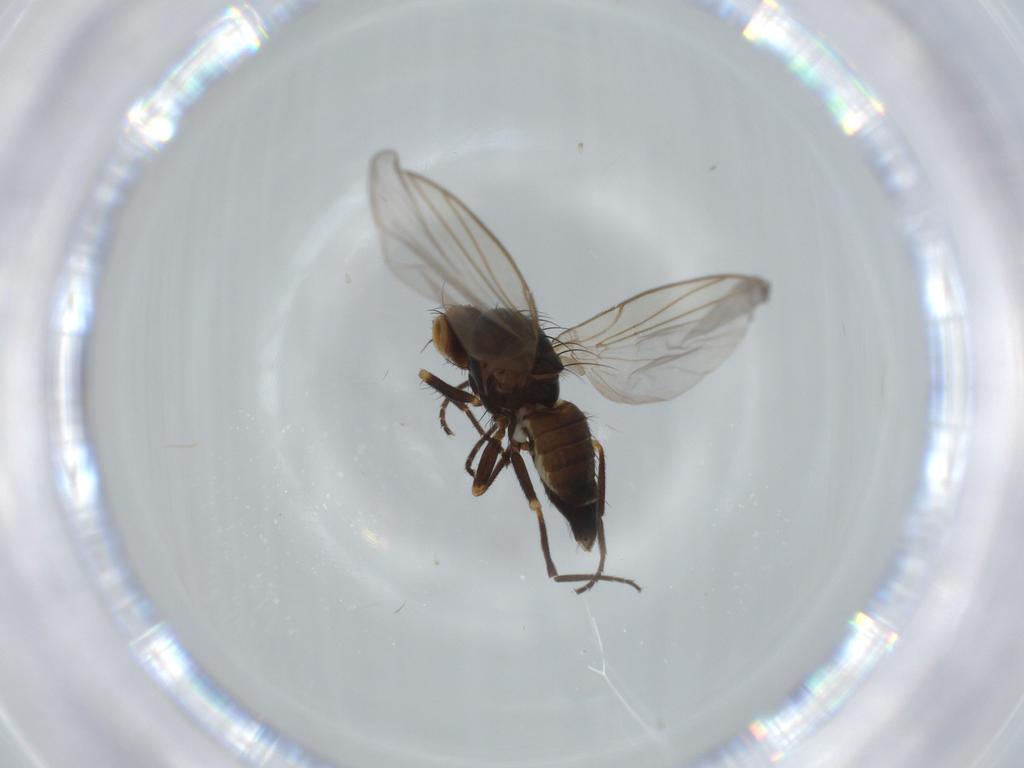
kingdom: Animalia
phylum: Arthropoda
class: Insecta
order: Diptera
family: Agromyzidae
